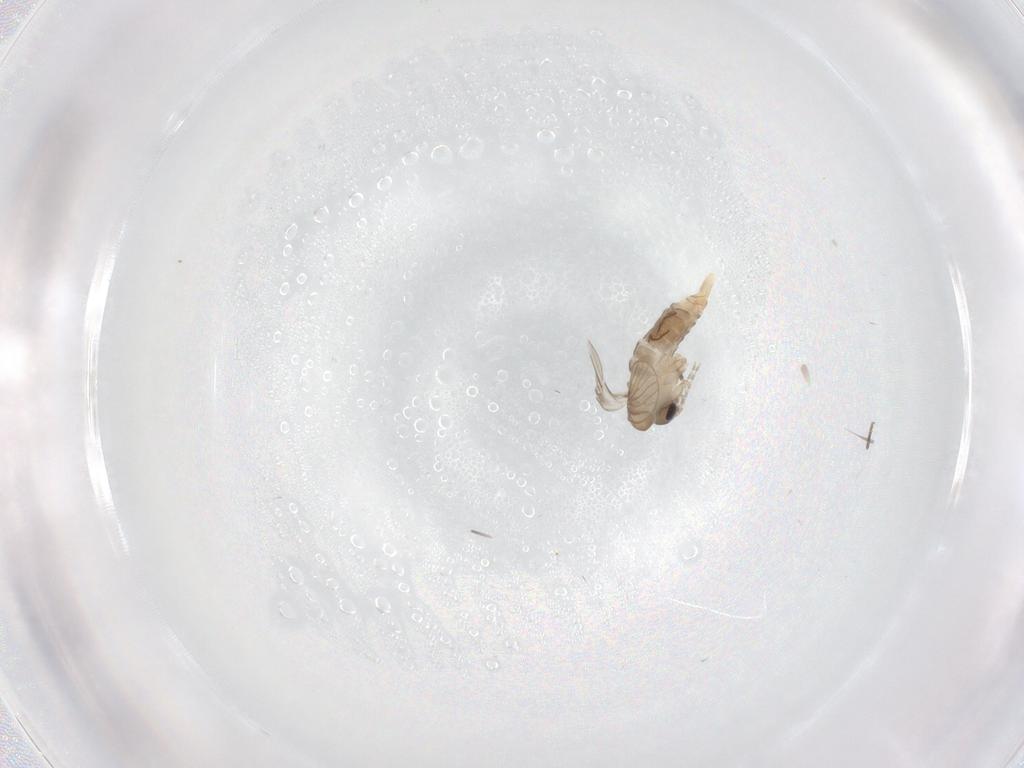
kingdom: Animalia
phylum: Arthropoda
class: Insecta
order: Diptera
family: Psychodidae
